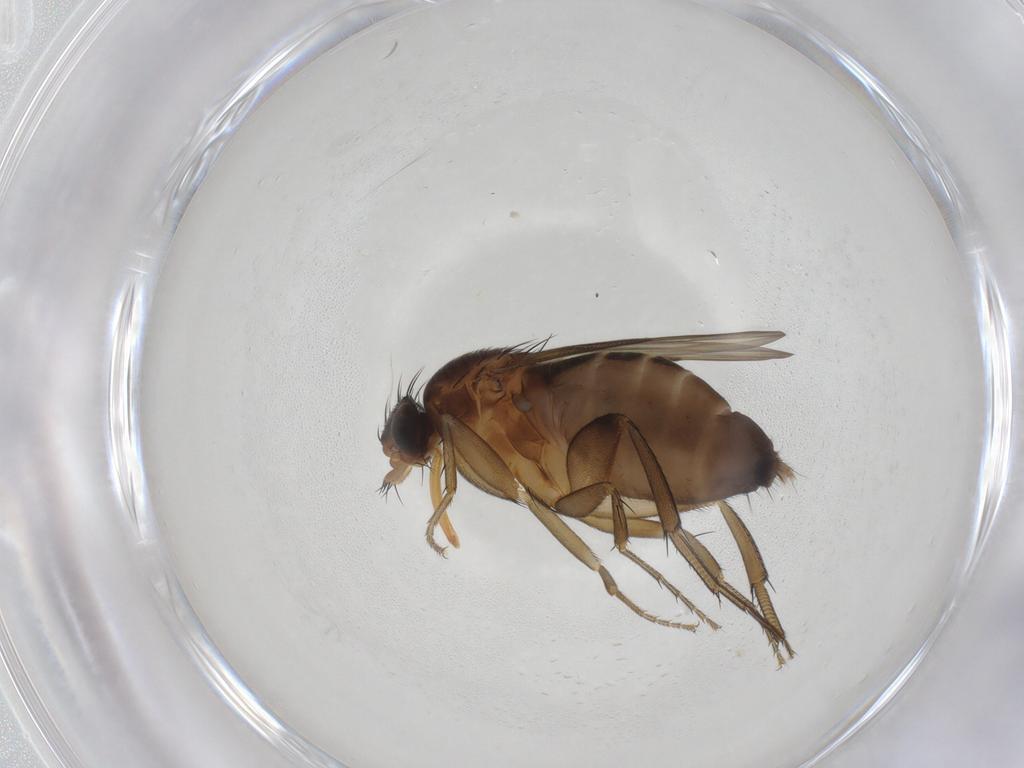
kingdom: Animalia
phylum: Arthropoda
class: Insecta
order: Diptera
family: Phoridae
